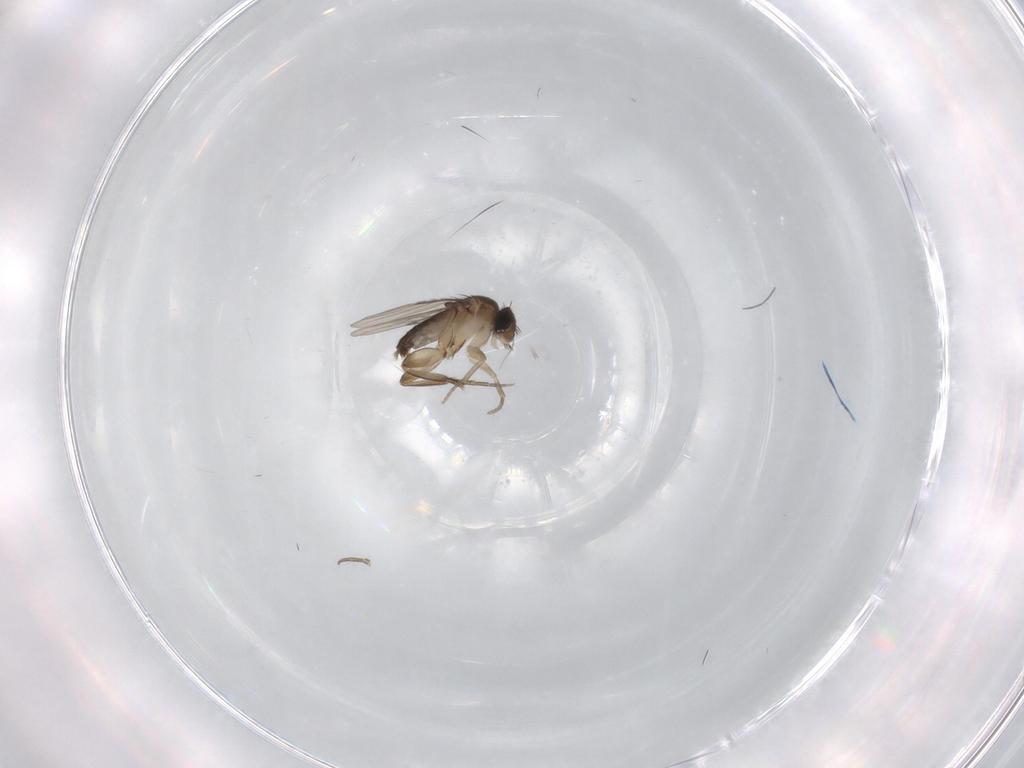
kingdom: Animalia
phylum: Arthropoda
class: Insecta
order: Diptera
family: Phoridae
